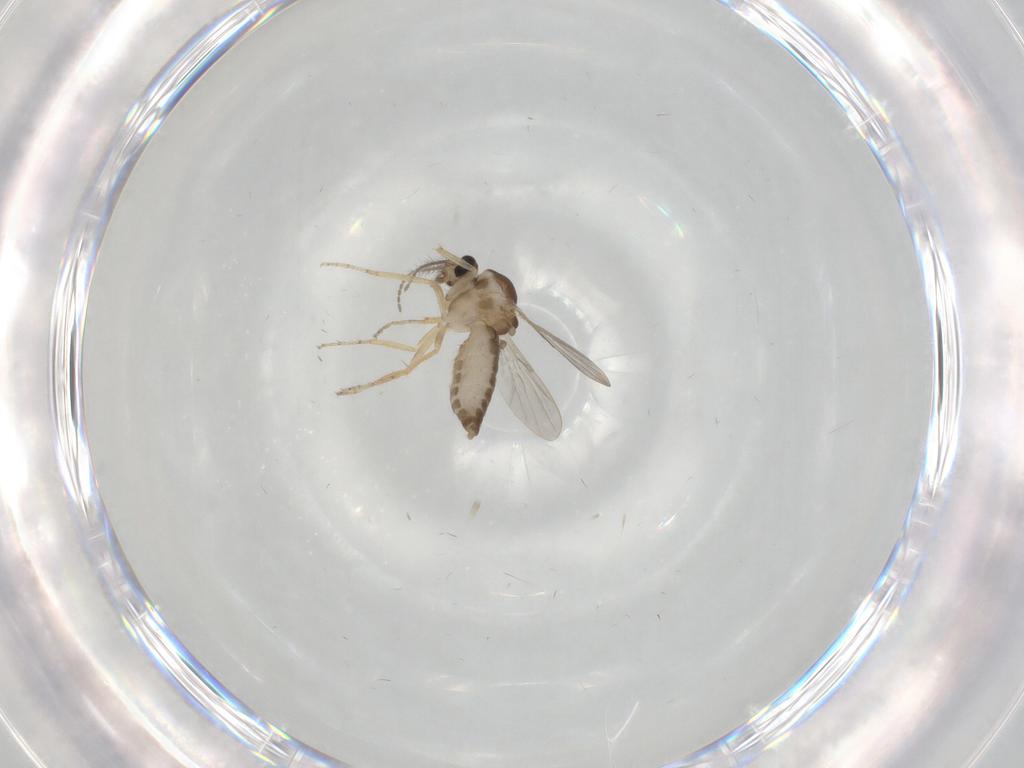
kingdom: Animalia
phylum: Arthropoda
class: Insecta
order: Diptera
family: Ceratopogonidae
